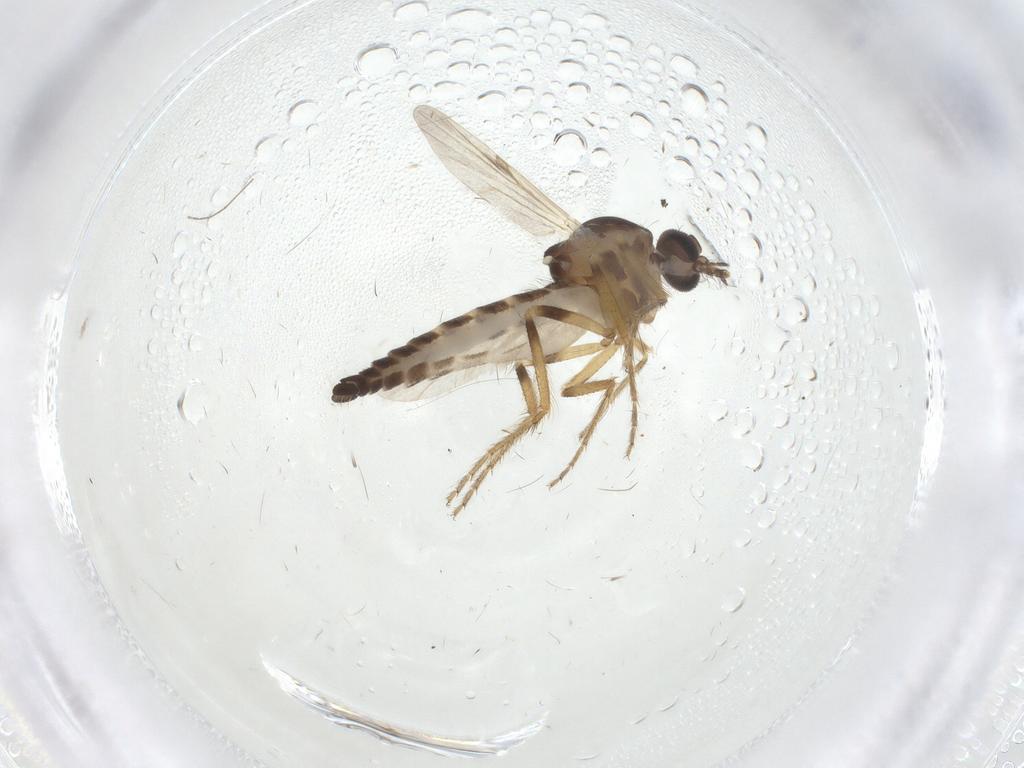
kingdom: Animalia
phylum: Arthropoda
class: Insecta
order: Diptera
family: Ceratopogonidae
